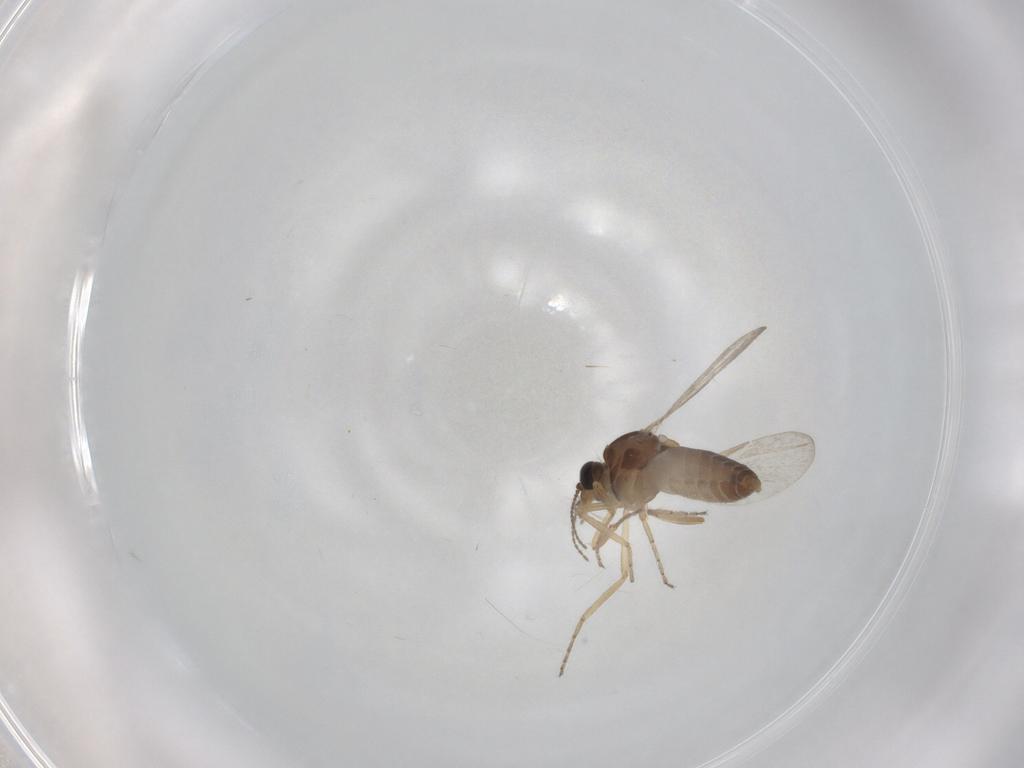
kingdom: Animalia
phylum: Arthropoda
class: Insecta
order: Diptera
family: Ceratopogonidae
